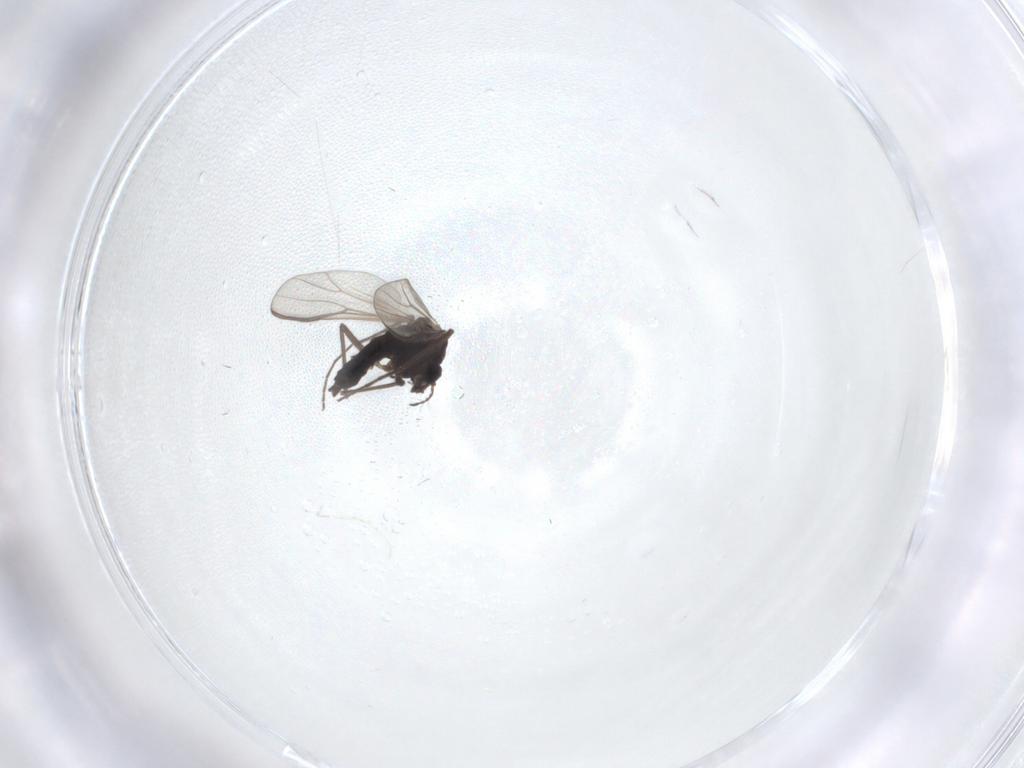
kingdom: Animalia
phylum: Arthropoda
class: Insecta
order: Diptera
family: Chironomidae
